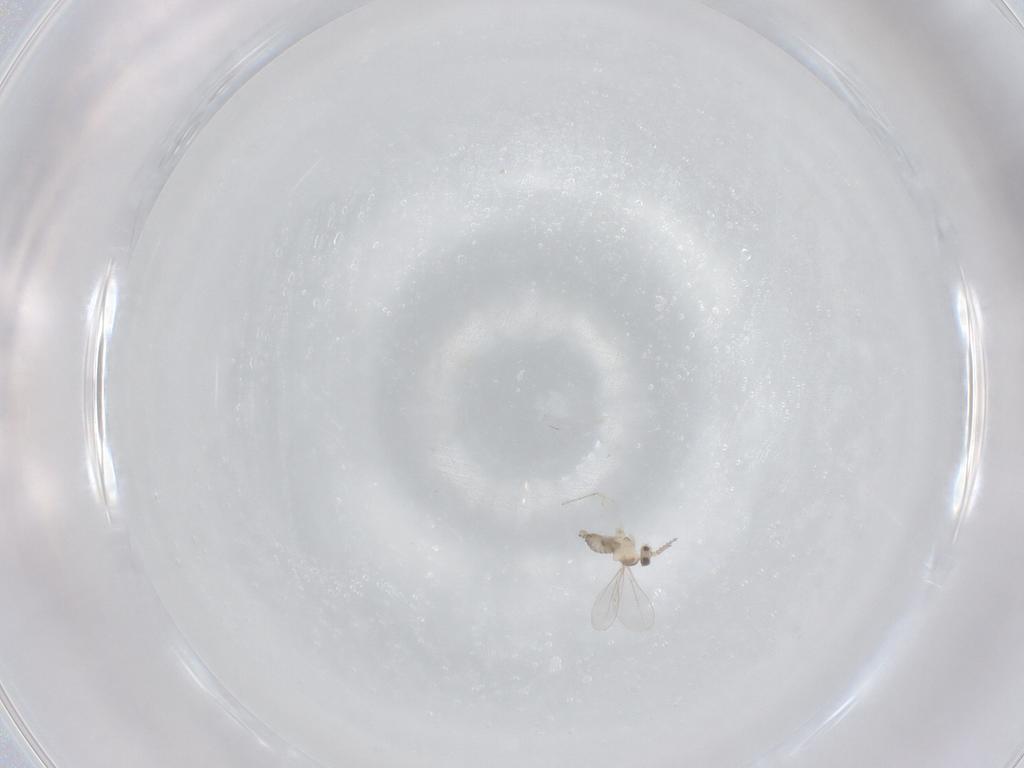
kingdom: Animalia
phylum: Arthropoda
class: Insecta
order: Diptera
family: Cecidomyiidae
